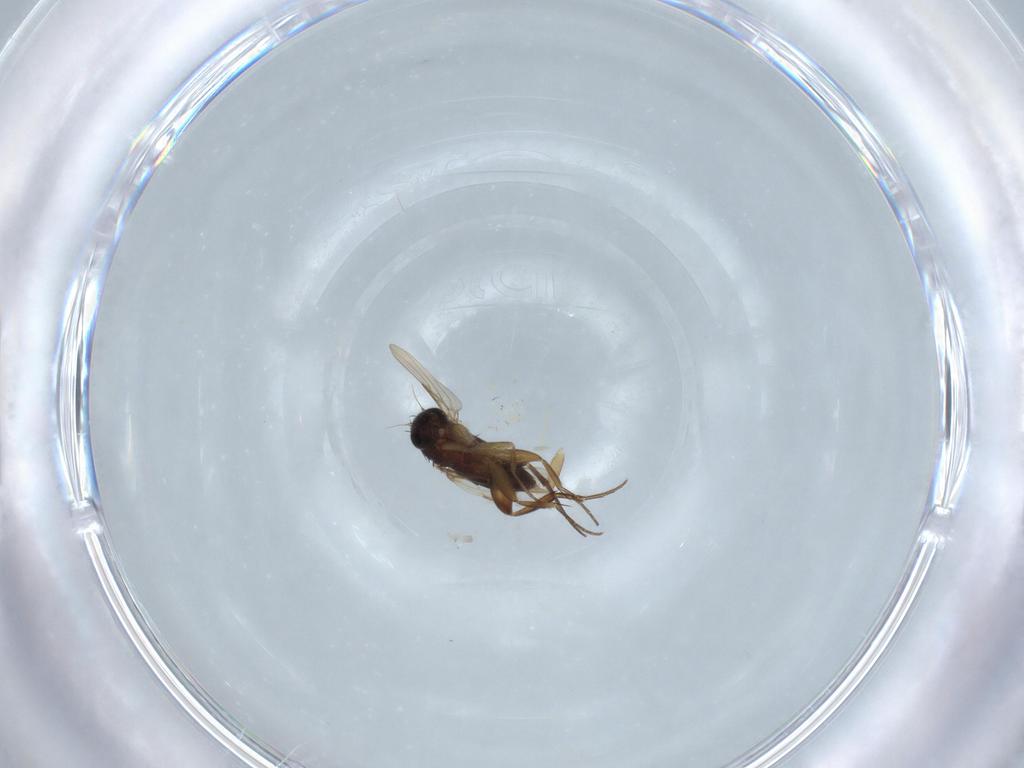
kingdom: Animalia
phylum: Arthropoda
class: Insecta
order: Diptera
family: Phoridae
